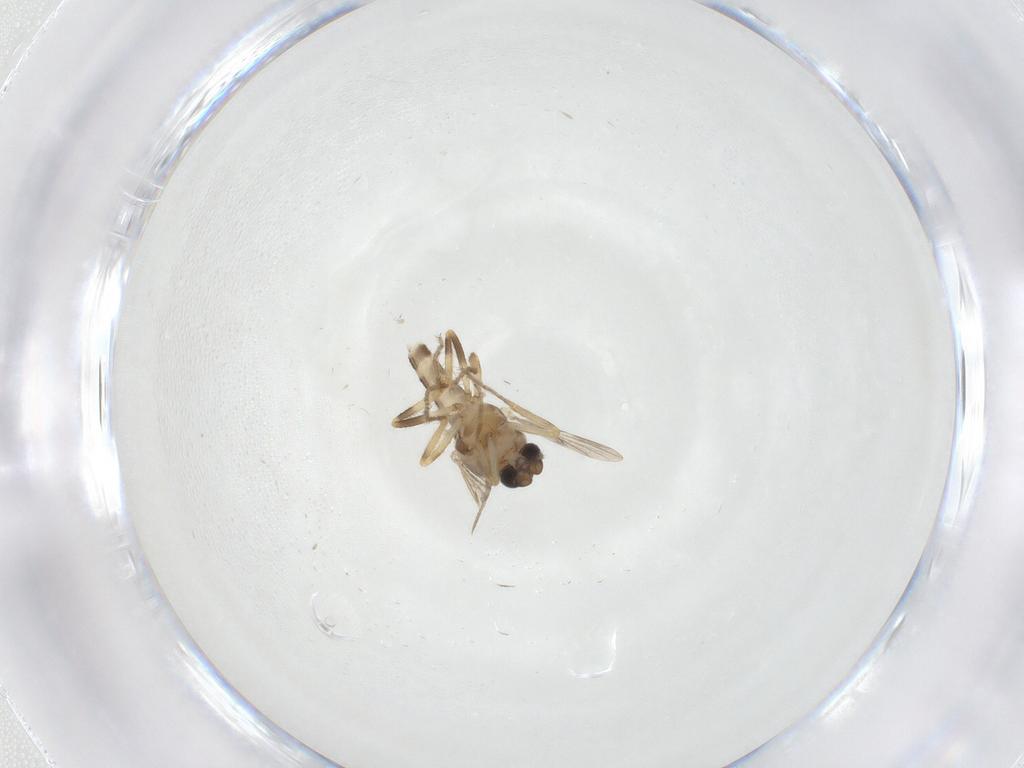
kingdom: Animalia
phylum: Arthropoda
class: Insecta
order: Diptera
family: Ceratopogonidae
